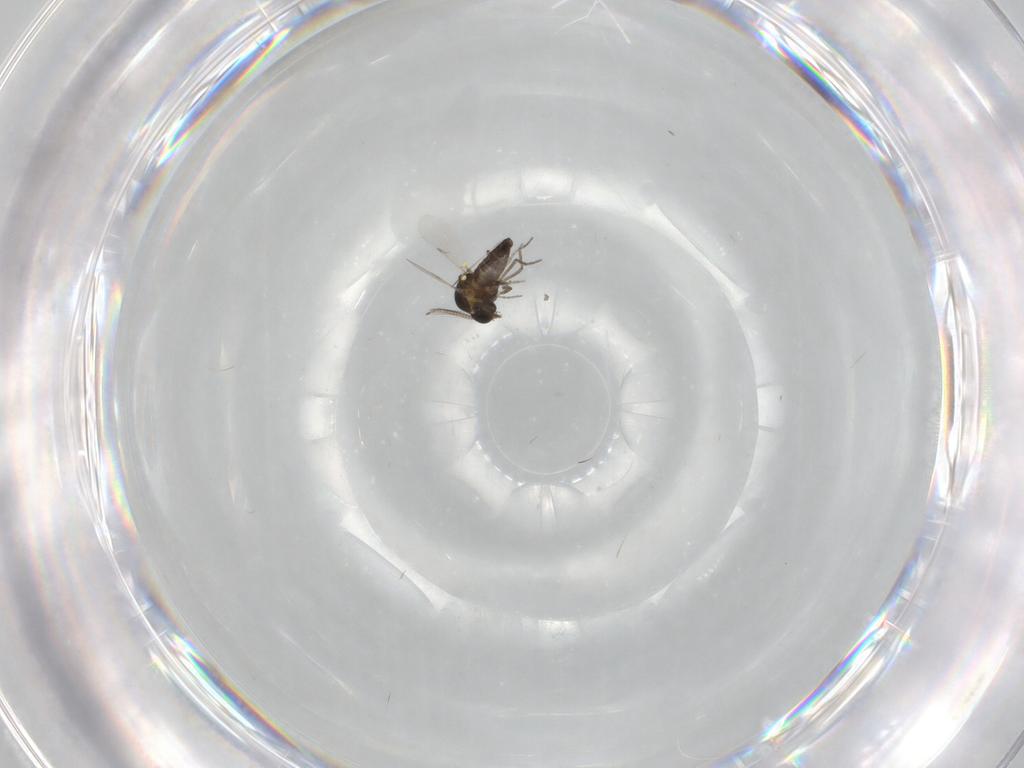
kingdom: Animalia
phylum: Arthropoda
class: Insecta
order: Diptera
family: Ceratopogonidae
